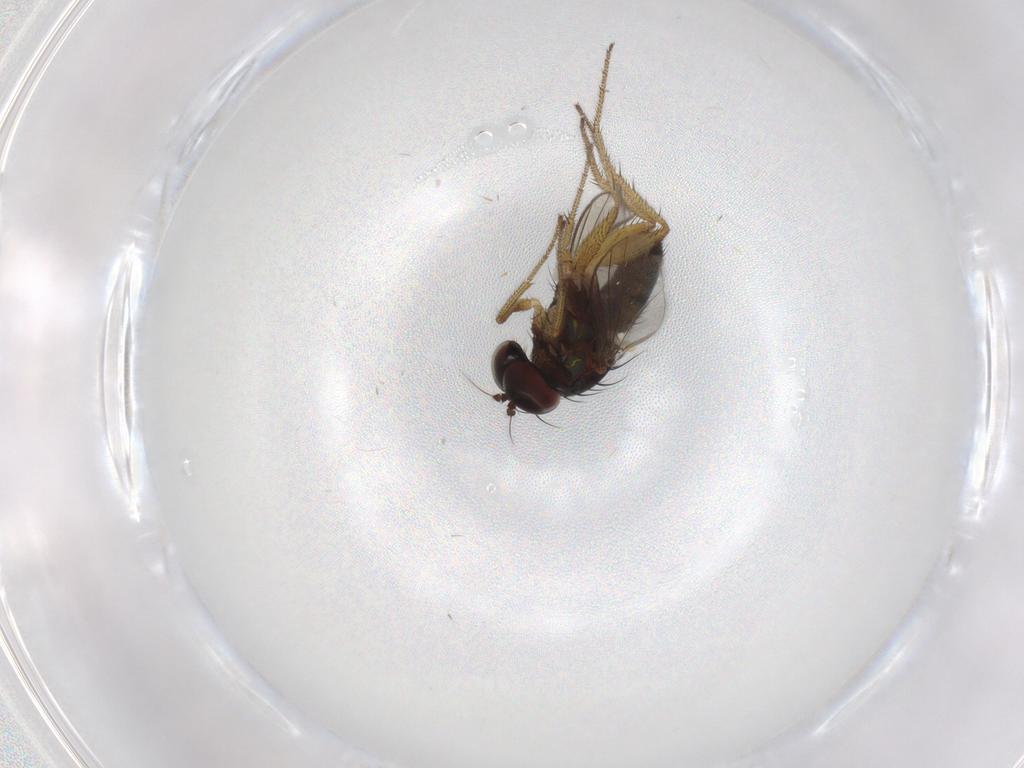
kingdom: Animalia
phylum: Arthropoda
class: Insecta
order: Diptera
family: Dolichopodidae
